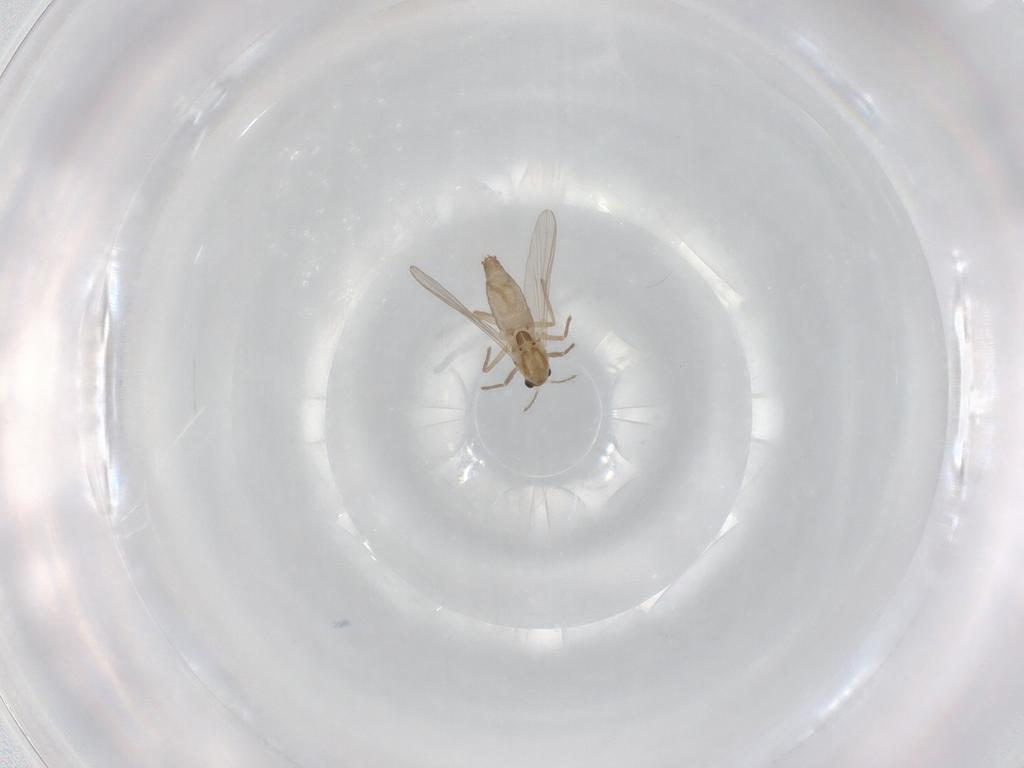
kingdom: Animalia
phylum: Arthropoda
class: Insecta
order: Diptera
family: Chironomidae
